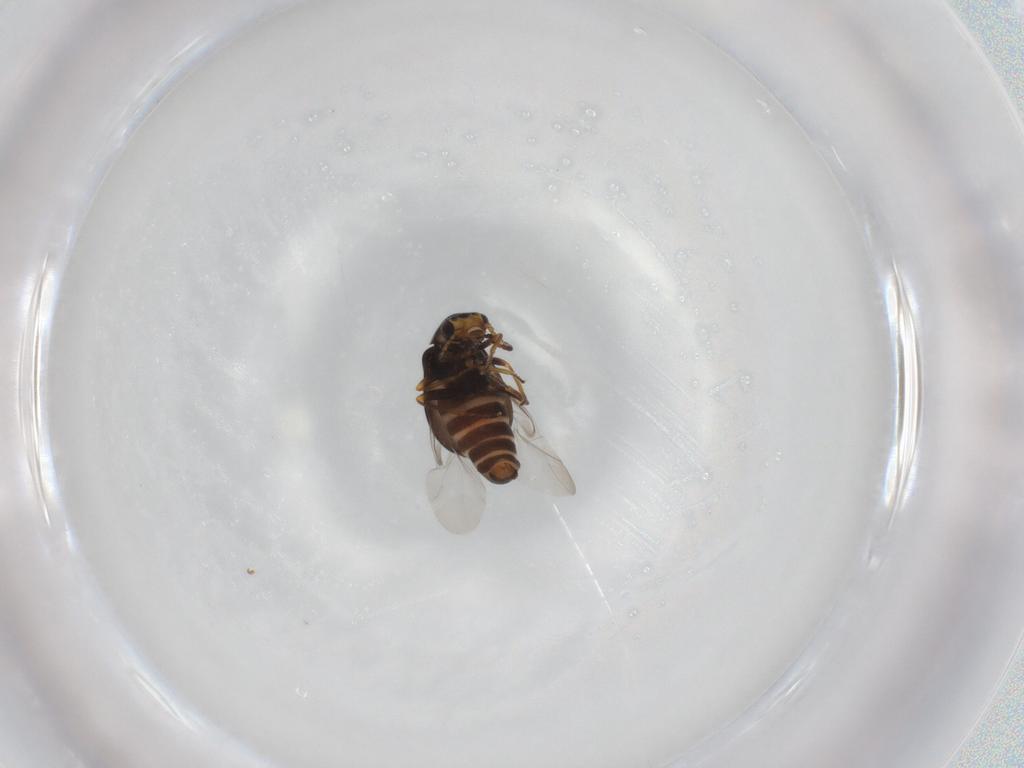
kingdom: Animalia
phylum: Arthropoda
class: Insecta
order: Coleoptera
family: Melyridae
